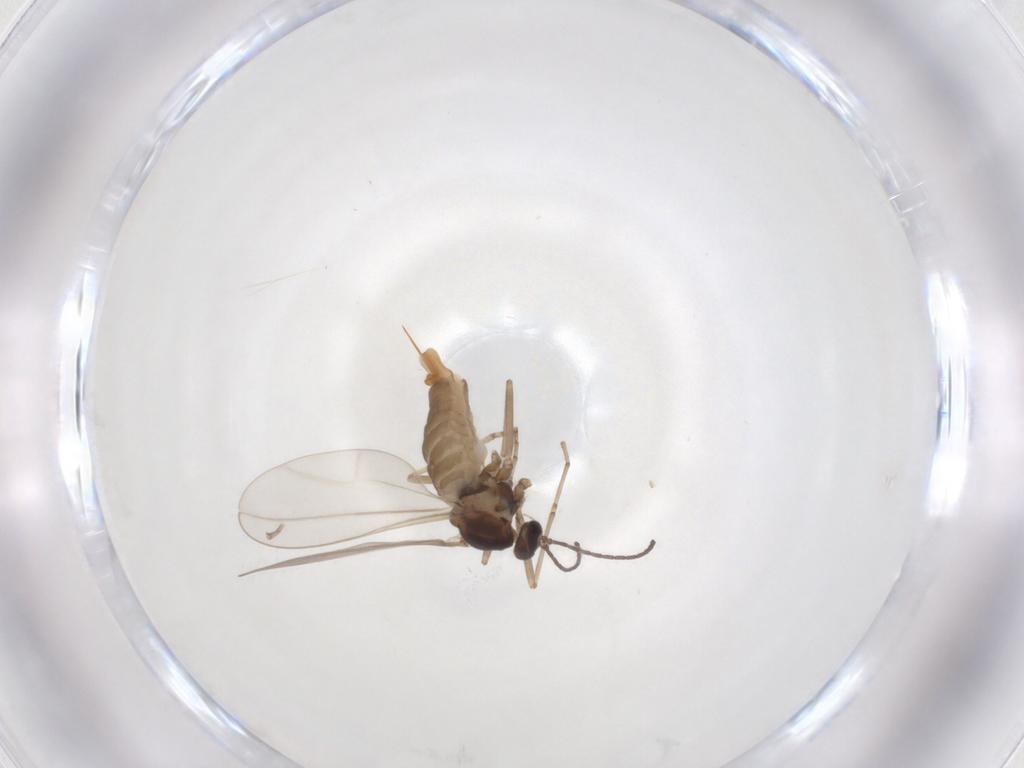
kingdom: Animalia
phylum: Arthropoda
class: Insecta
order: Diptera
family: Cecidomyiidae
